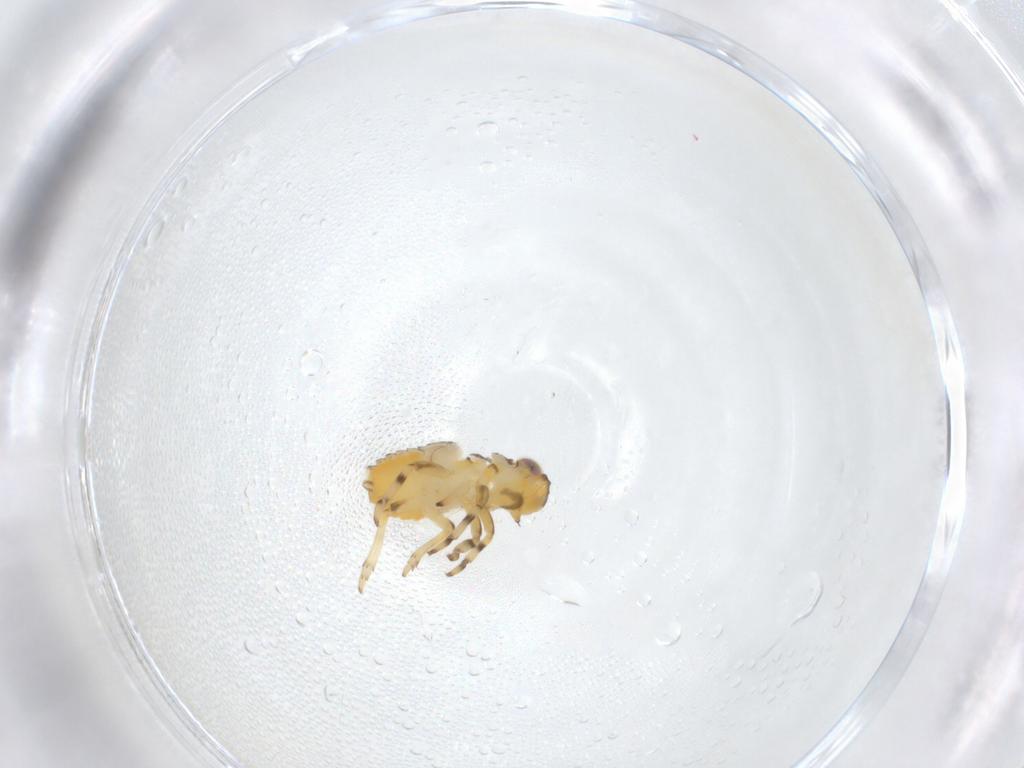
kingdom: Animalia
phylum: Arthropoda
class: Insecta
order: Hemiptera
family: Issidae
